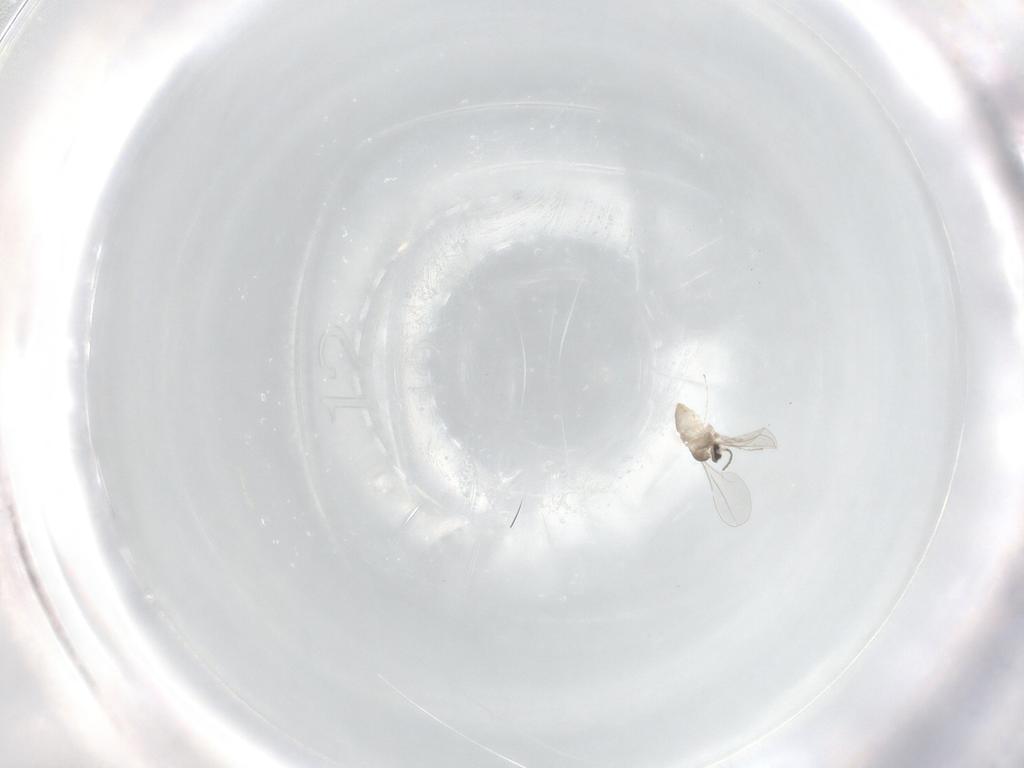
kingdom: Animalia
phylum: Arthropoda
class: Insecta
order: Diptera
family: Cecidomyiidae
